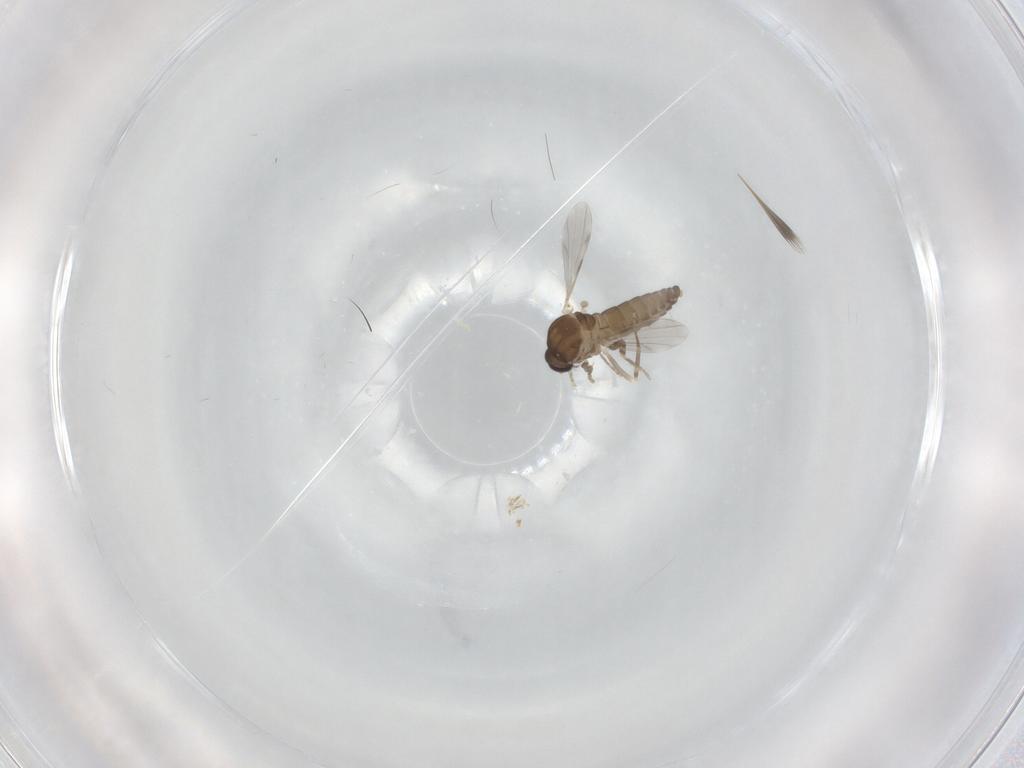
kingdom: Animalia
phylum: Arthropoda
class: Insecta
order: Diptera
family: Ceratopogonidae
